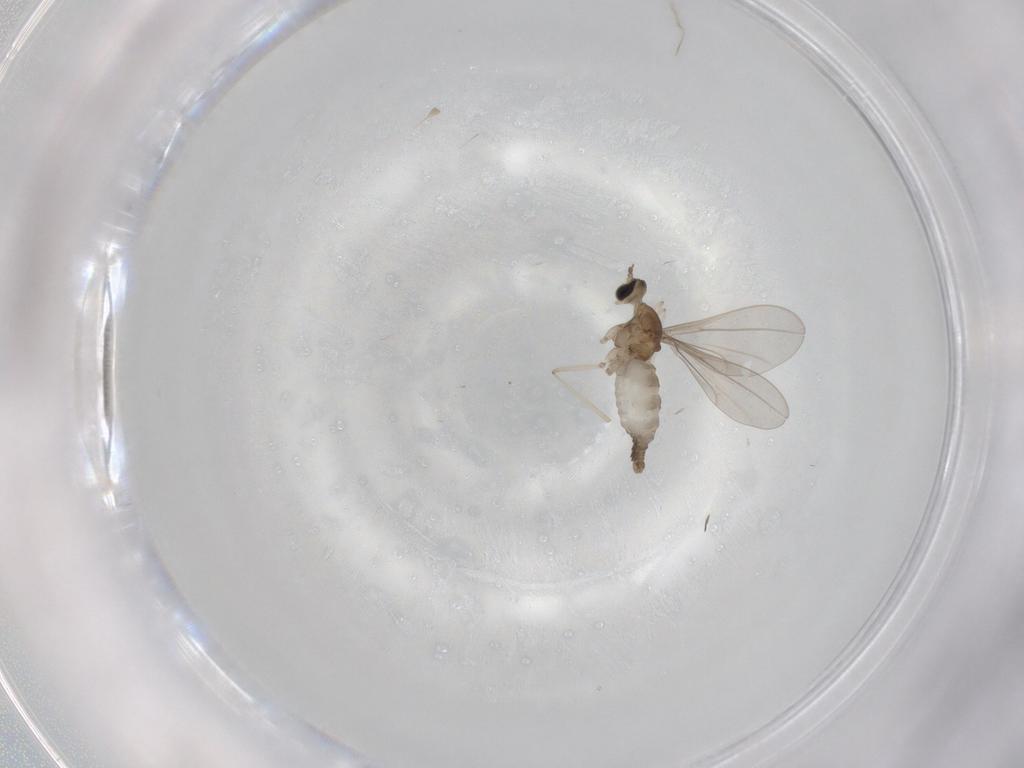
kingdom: Animalia
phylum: Arthropoda
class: Insecta
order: Diptera
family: Cecidomyiidae
